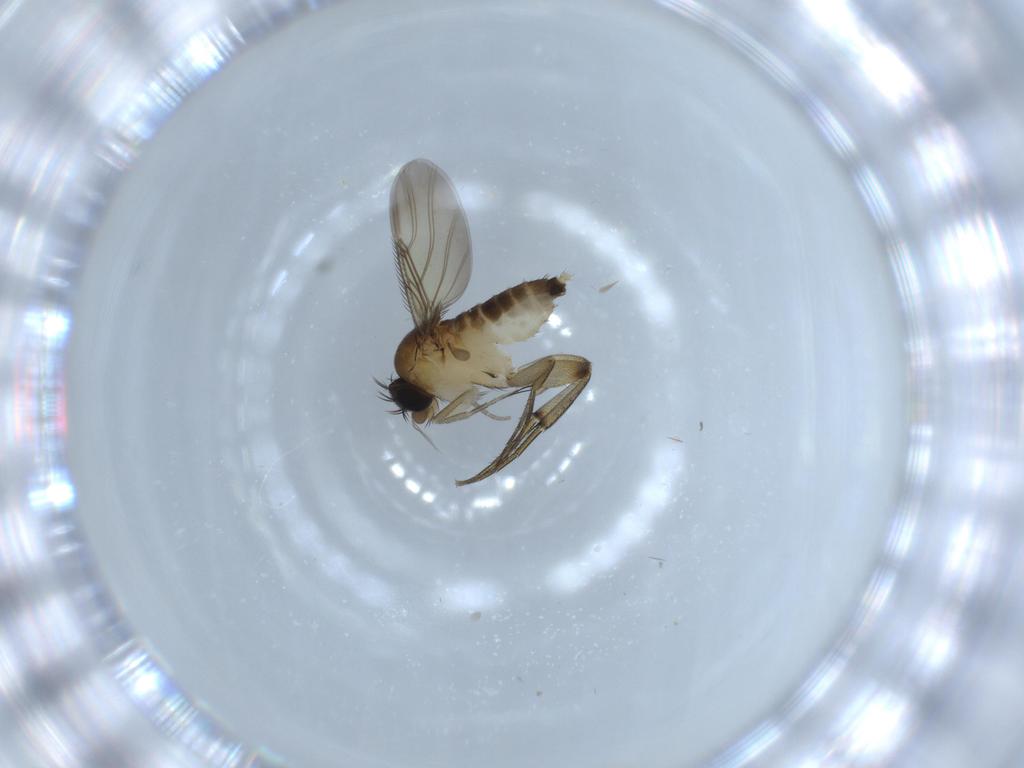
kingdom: Animalia
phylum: Arthropoda
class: Insecta
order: Diptera
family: Phoridae
